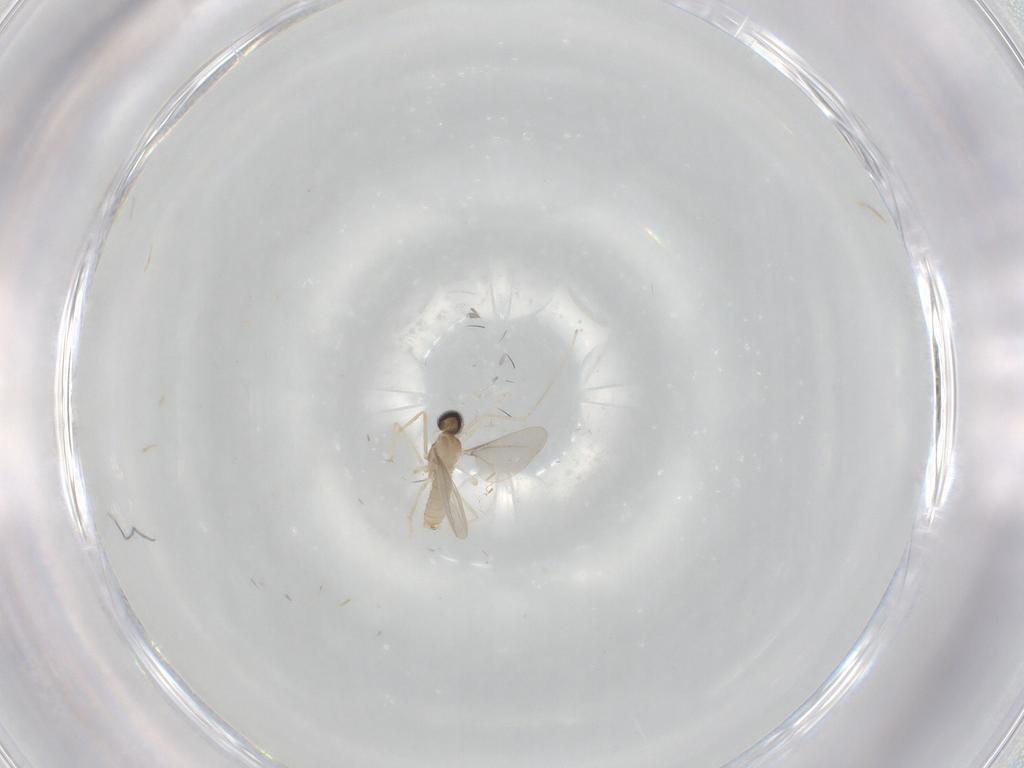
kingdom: Animalia
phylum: Arthropoda
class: Insecta
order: Diptera
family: Cecidomyiidae
